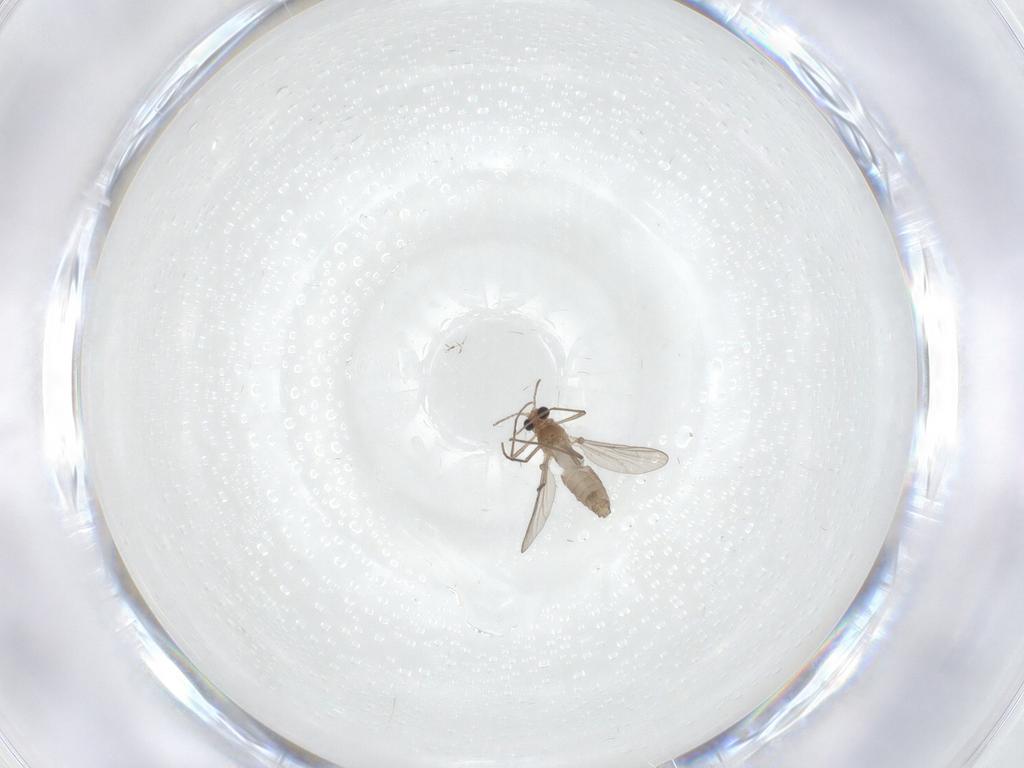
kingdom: Animalia
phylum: Arthropoda
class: Insecta
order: Diptera
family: Chironomidae
